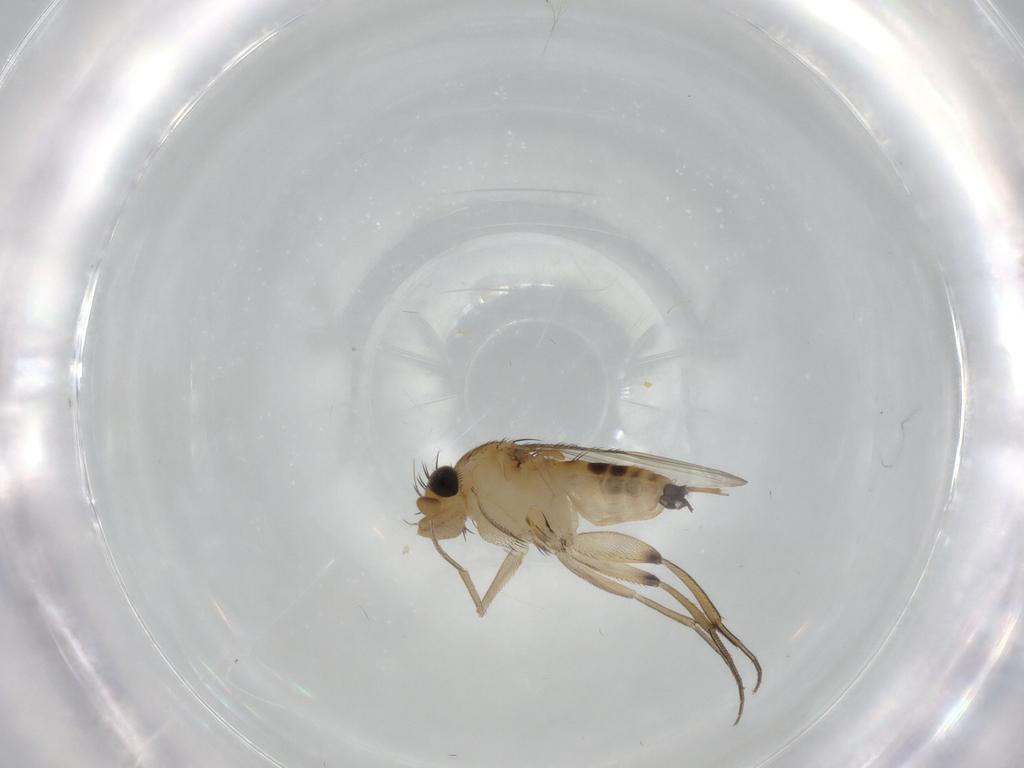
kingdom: Animalia
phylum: Arthropoda
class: Insecta
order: Diptera
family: Phoridae
